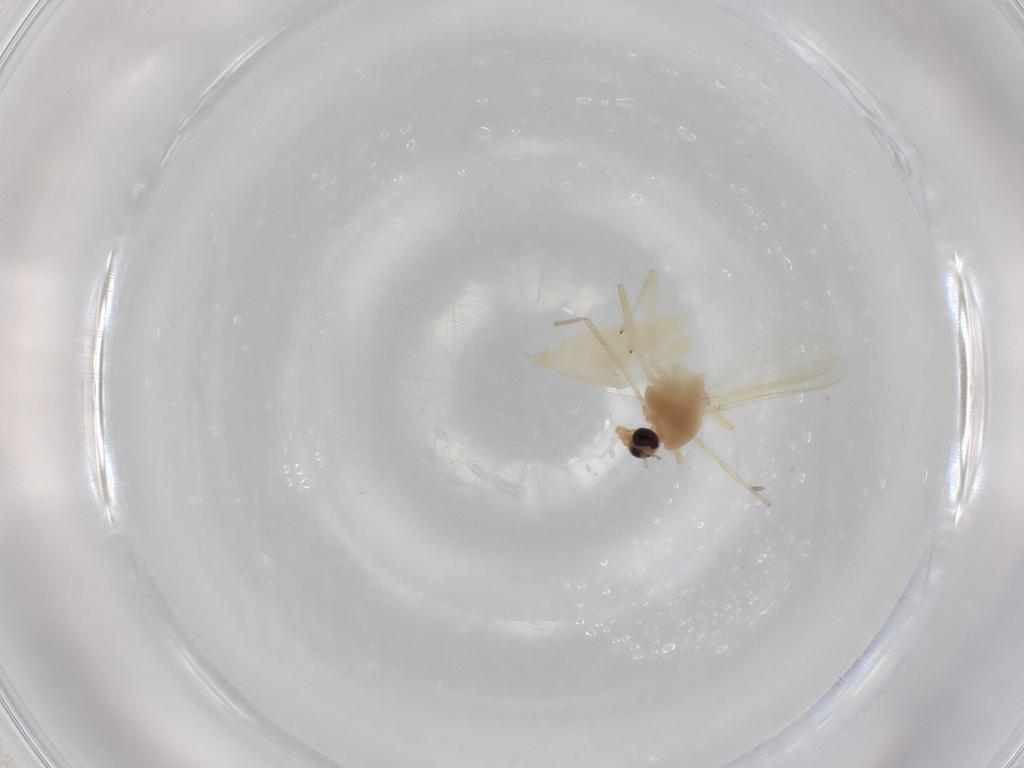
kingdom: Animalia
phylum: Arthropoda
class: Insecta
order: Diptera
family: Chironomidae
